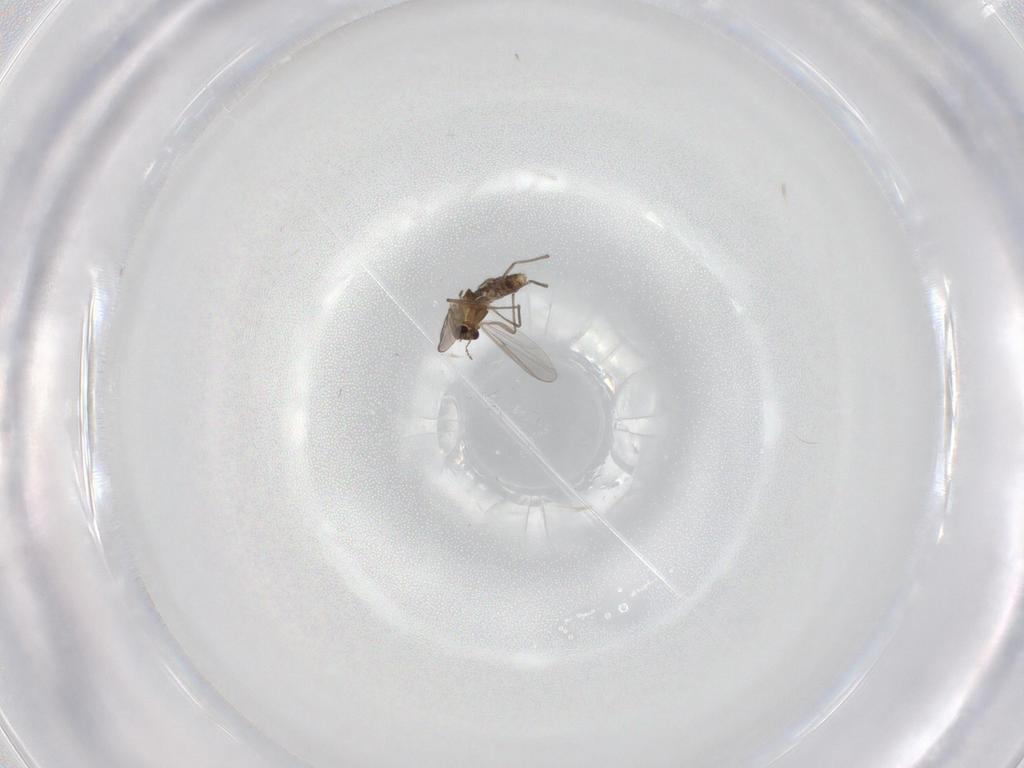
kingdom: Animalia
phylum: Arthropoda
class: Insecta
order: Diptera
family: Chironomidae
